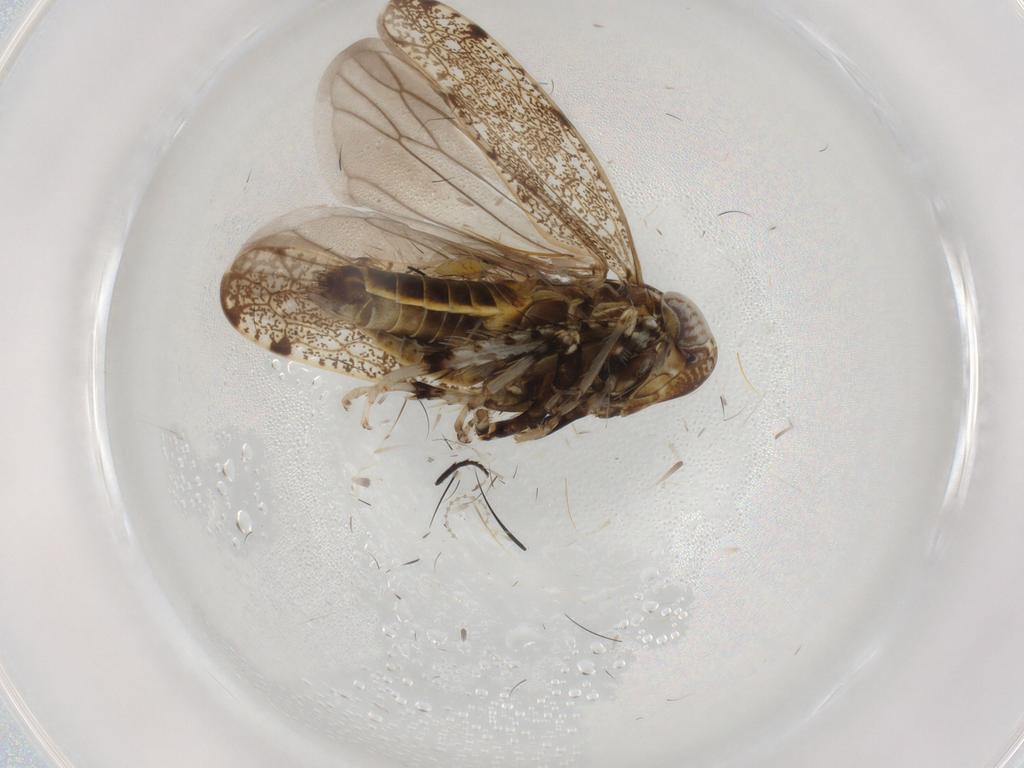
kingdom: Animalia
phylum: Arthropoda
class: Insecta
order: Hemiptera
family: Cicadellidae
